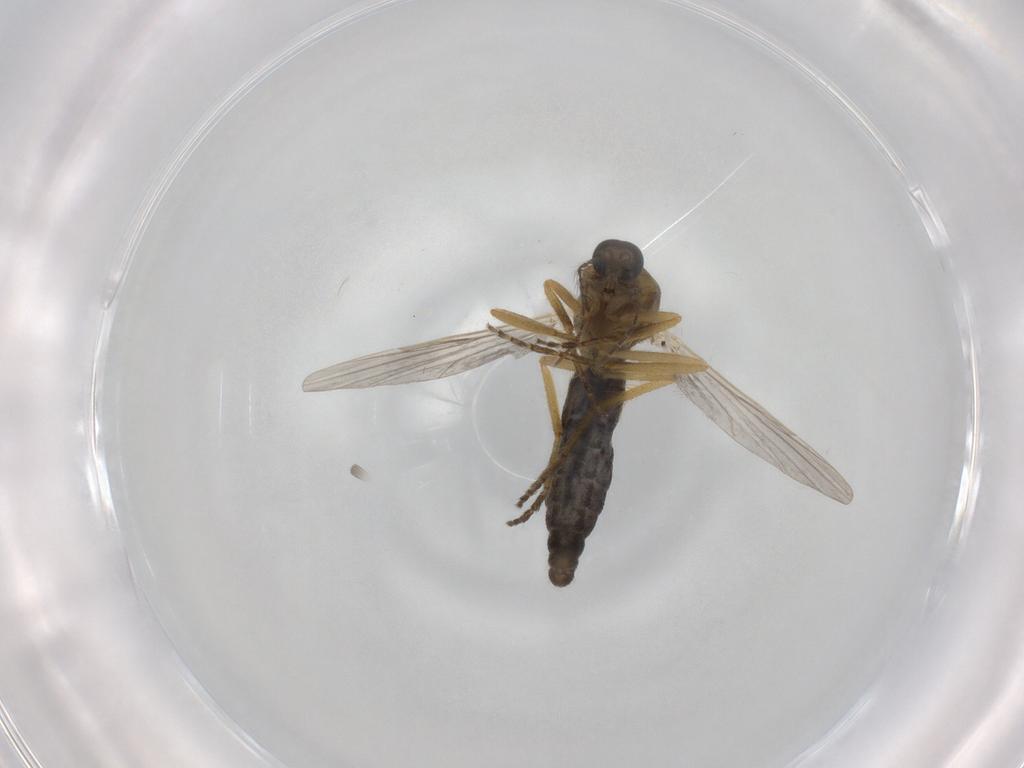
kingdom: Animalia
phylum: Arthropoda
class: Insecta
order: Diptera
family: Ceratopogonidae
